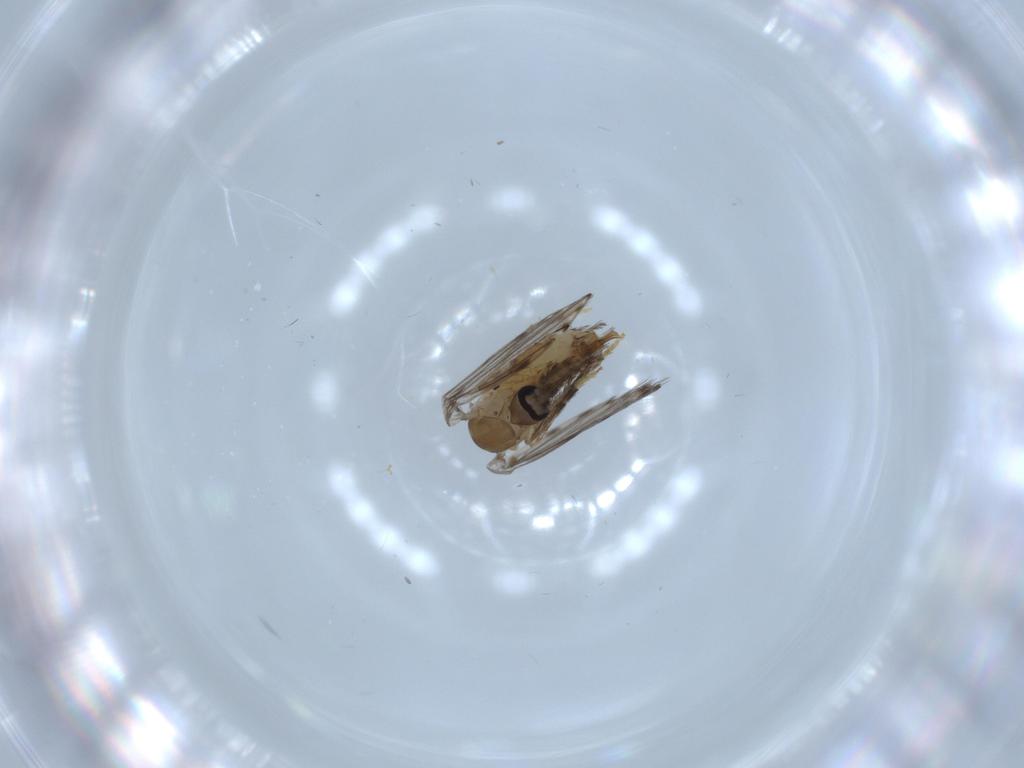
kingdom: Animalia
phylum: Arthropoda
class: Insecta
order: Diptera
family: Psychodidae
